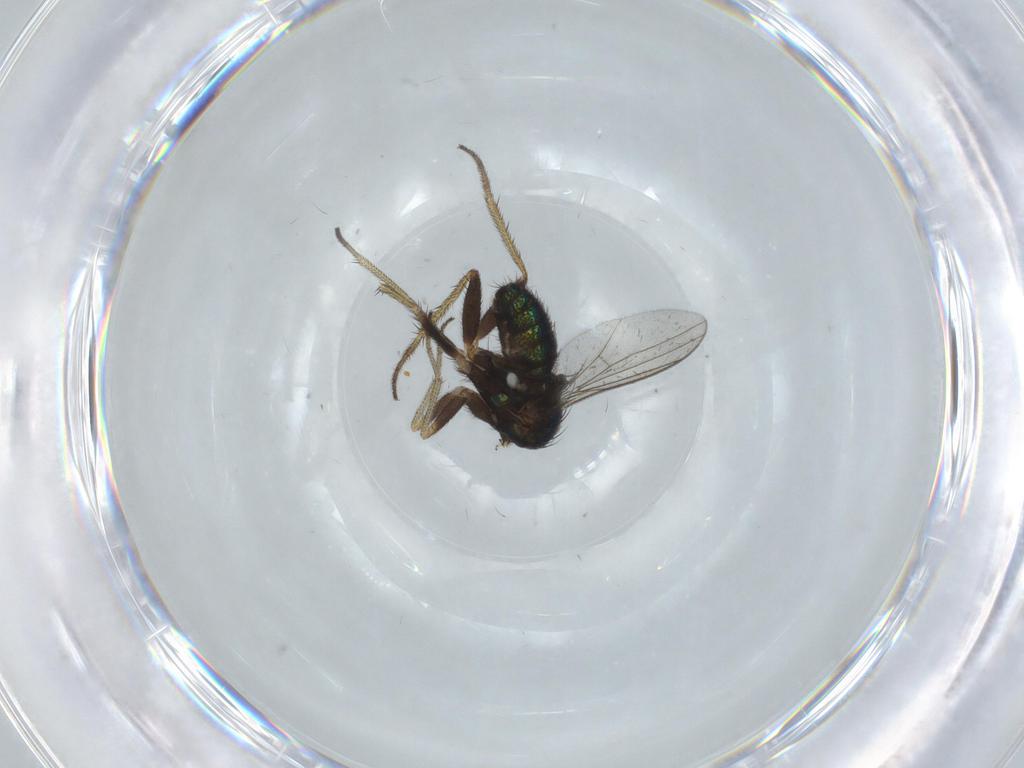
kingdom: Animalia
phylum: Arthropoda
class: Insecta
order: Diptera
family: Dolichopodidae
